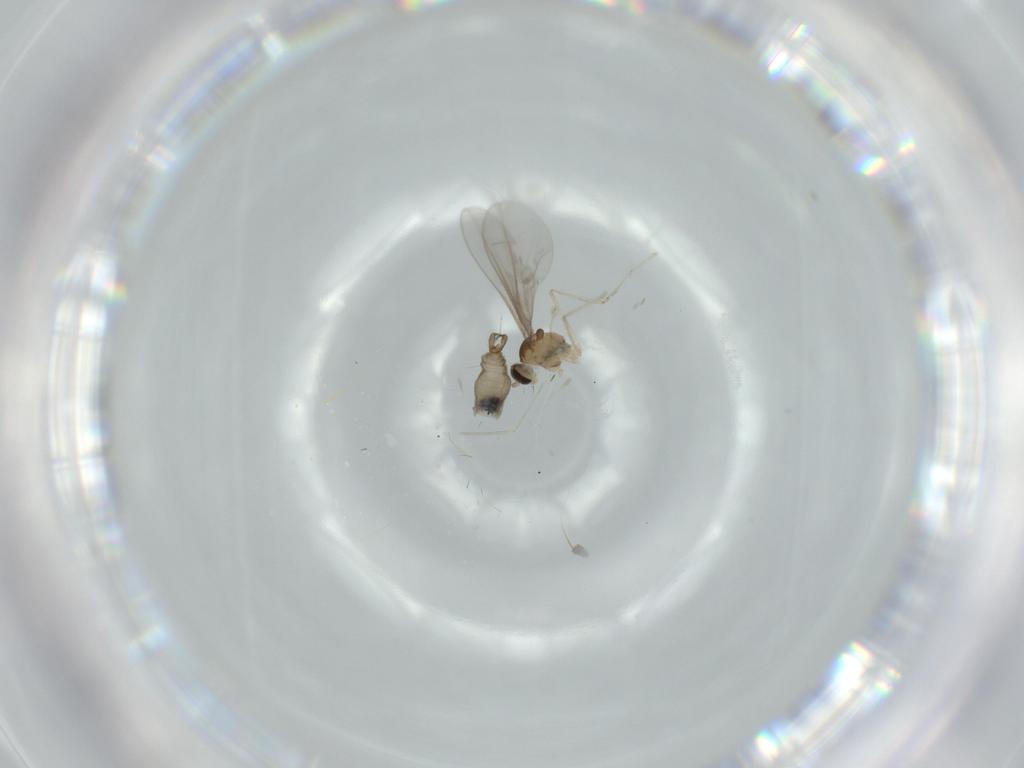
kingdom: Animalia
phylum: Arthropoda
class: Insecta
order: Diptera
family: Cecidomyiidae
